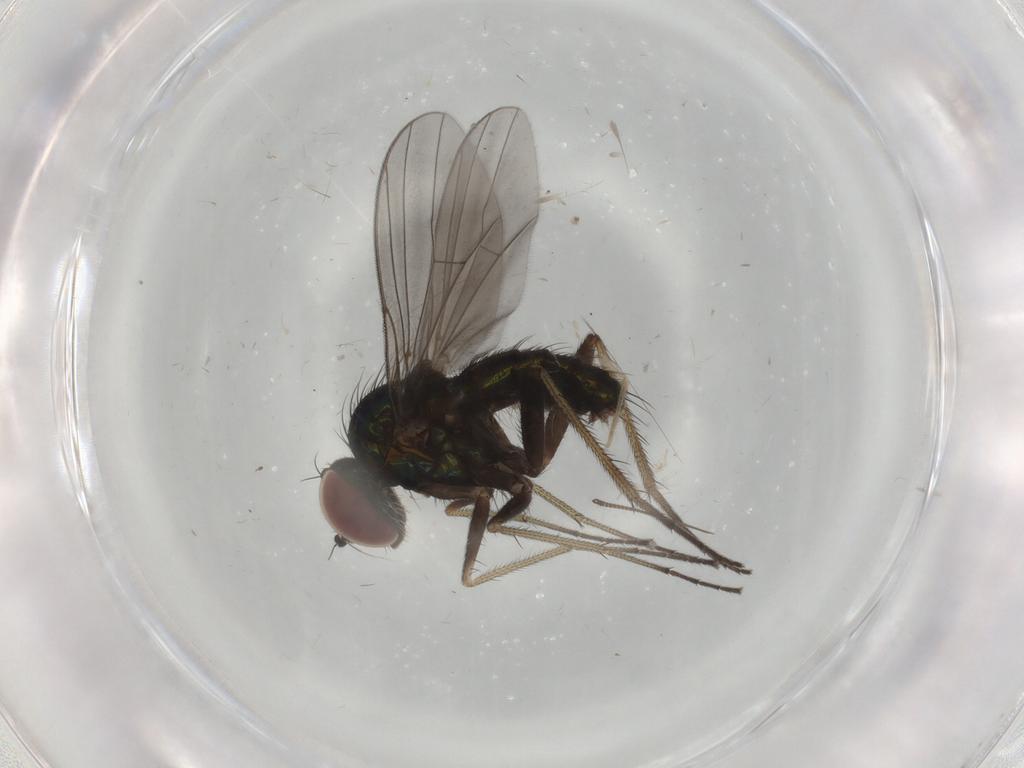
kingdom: Animalia
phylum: Arthropoda
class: Insecta
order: Diptera
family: Dolichopodidae
